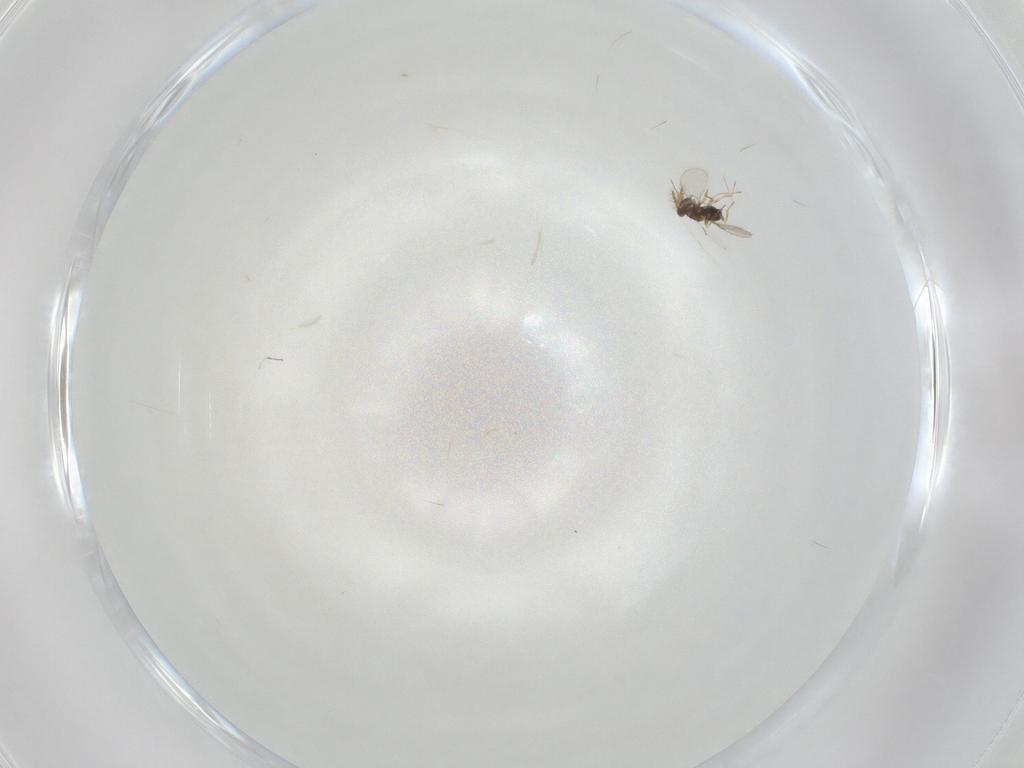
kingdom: Animalia
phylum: Arthropoda
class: Insecta
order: Hymenoptera
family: Trichogrammatidae
